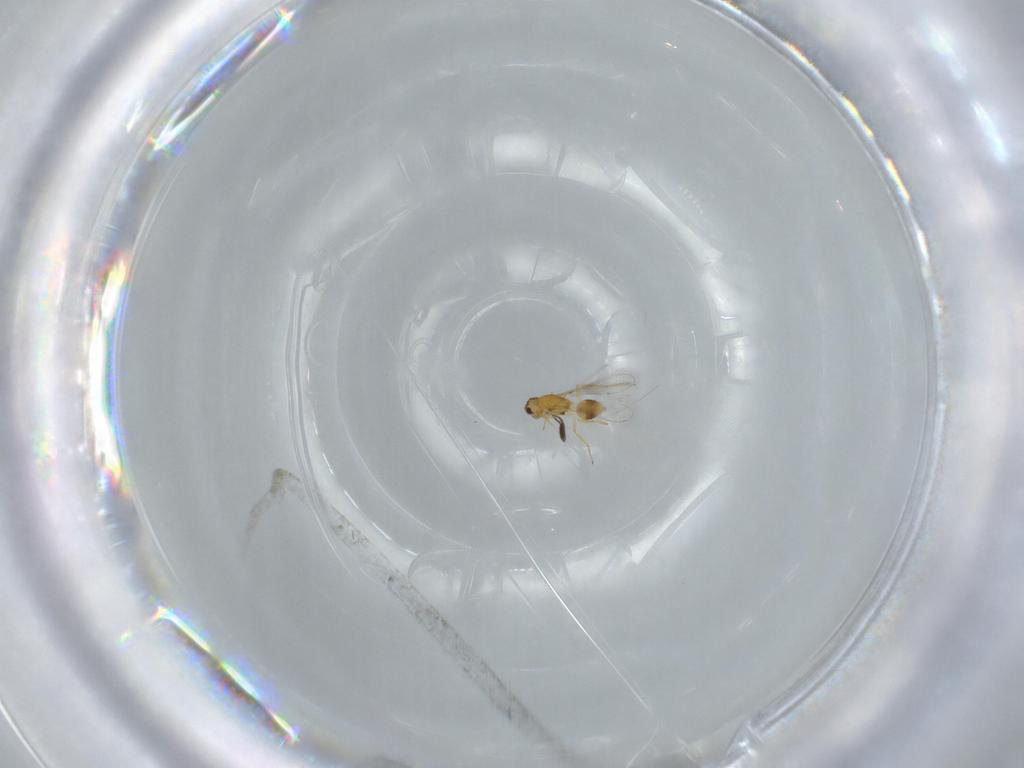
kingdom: Animalia
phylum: Arthropoda
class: Insecta
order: Hymenoptera
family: Mymaridae
